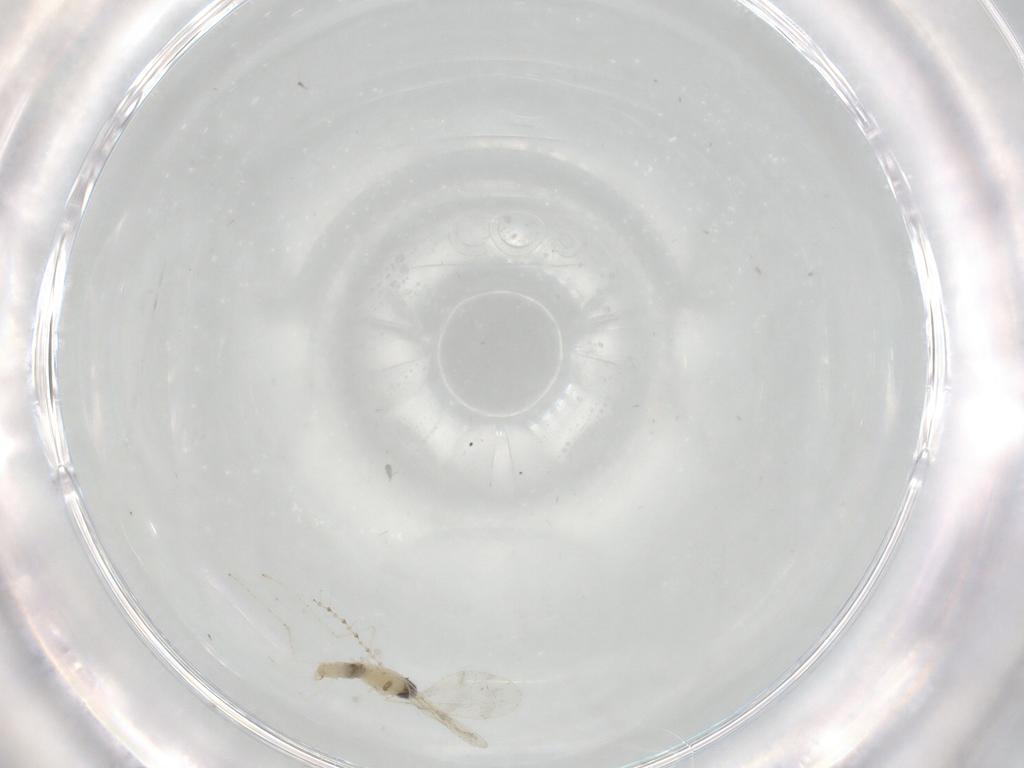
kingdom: Animalia
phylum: Arthropoda
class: Insecta
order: Diptera
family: Cecidomyiidae
